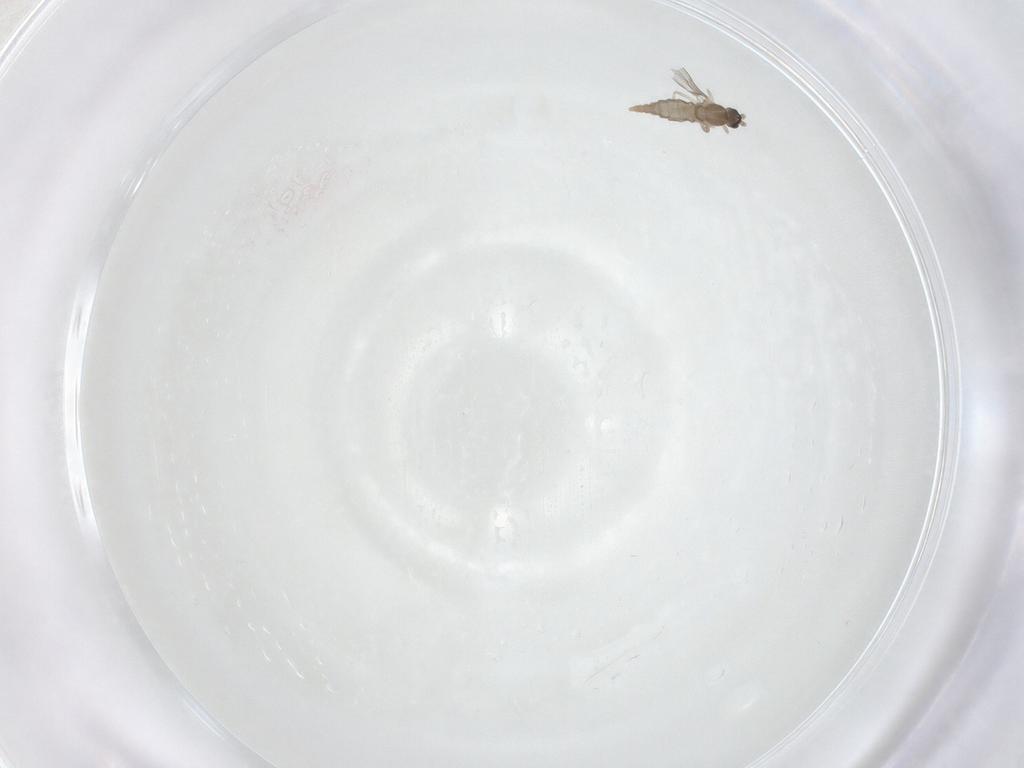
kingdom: Animalia
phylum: Arthropoda
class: Insecta
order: Diptera
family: Cecidomyiidae
